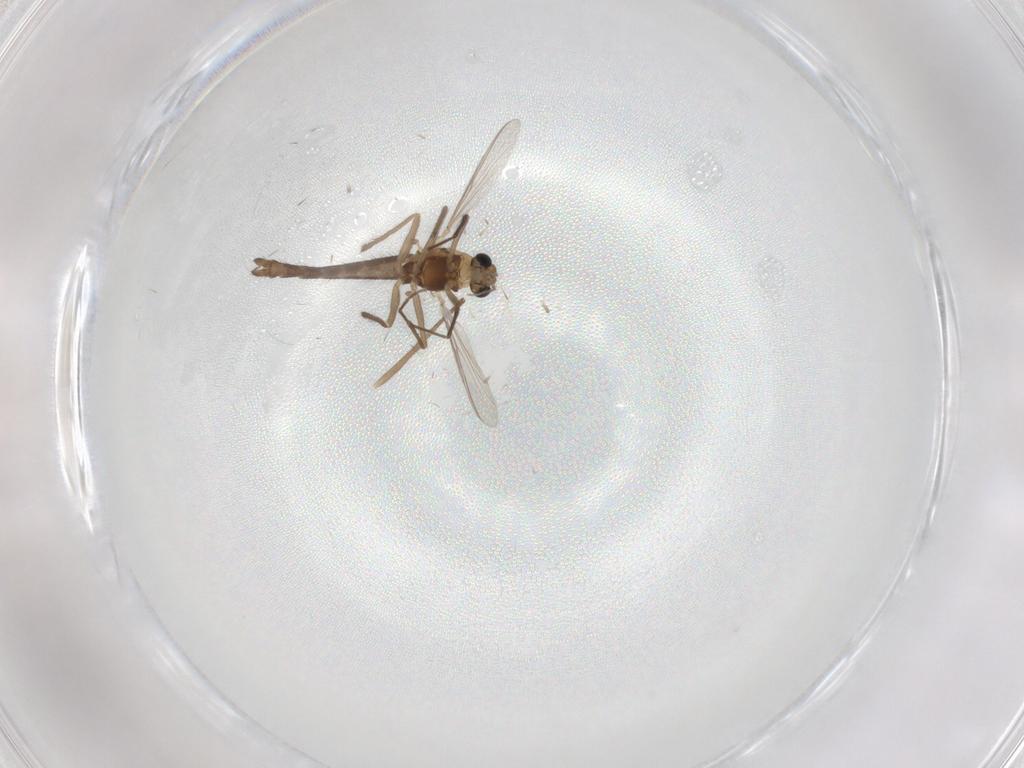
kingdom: Animalia
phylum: Arthropoda
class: Insecta
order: Diptera
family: Chironomidae
